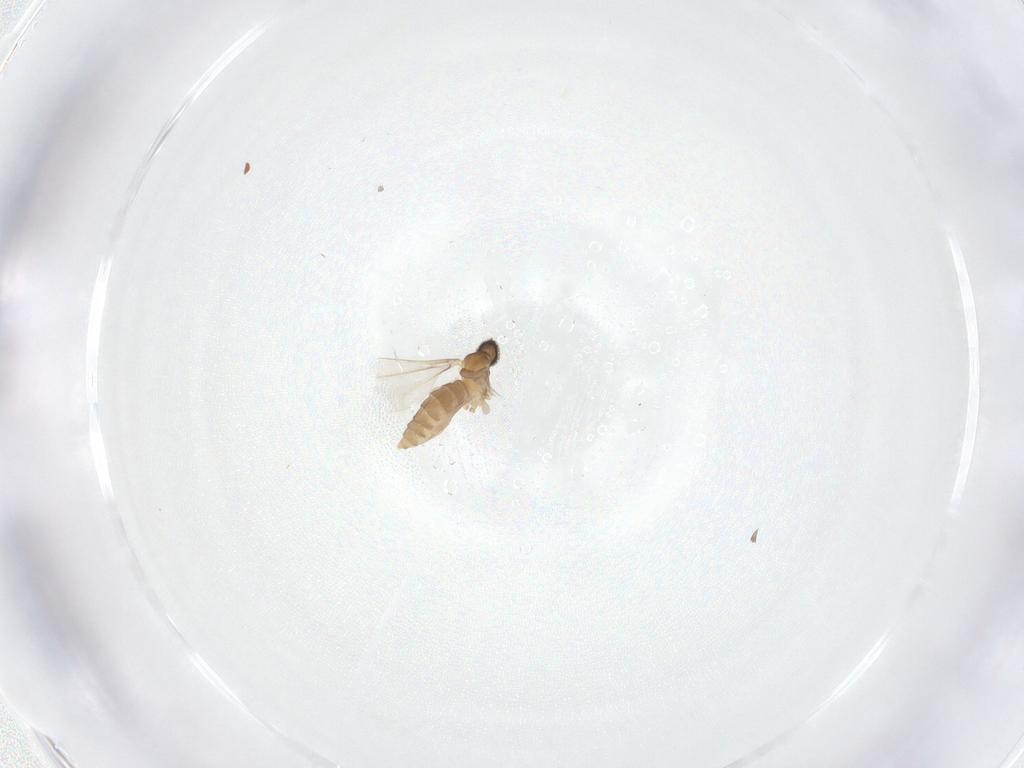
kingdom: Animalia
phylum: Arthropoda
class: Insecta
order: Diptera
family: Cecidomyiidae
